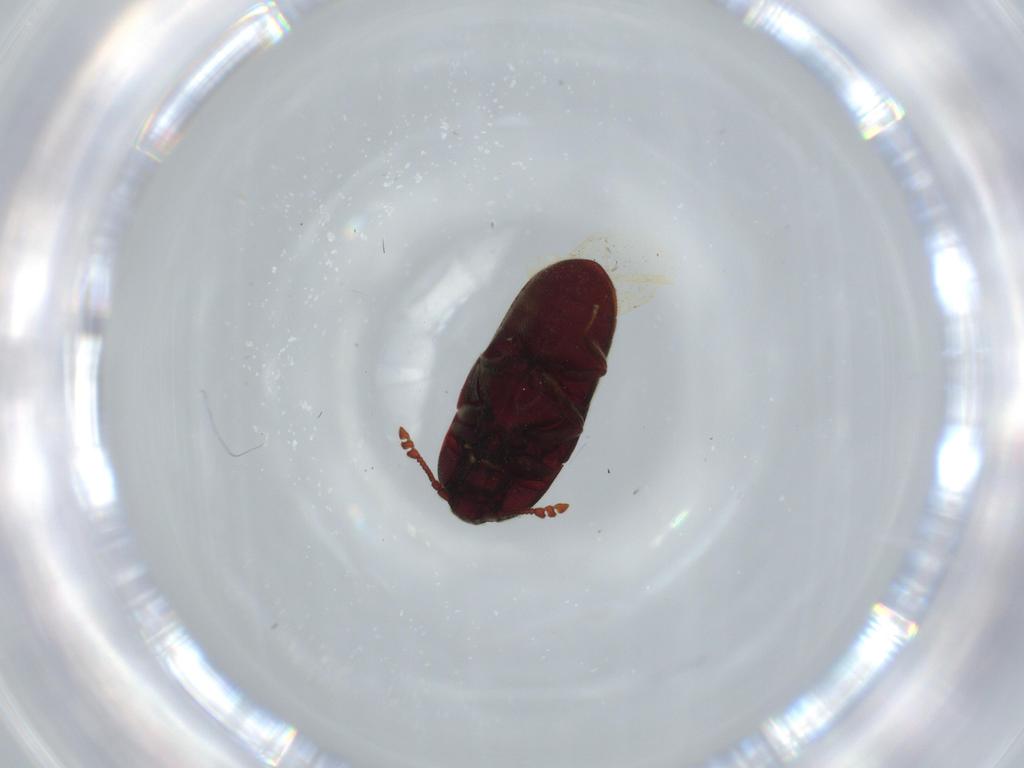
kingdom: Animalia
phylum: Arthropoda
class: Insecta
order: Coleoptera
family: Throscidae
